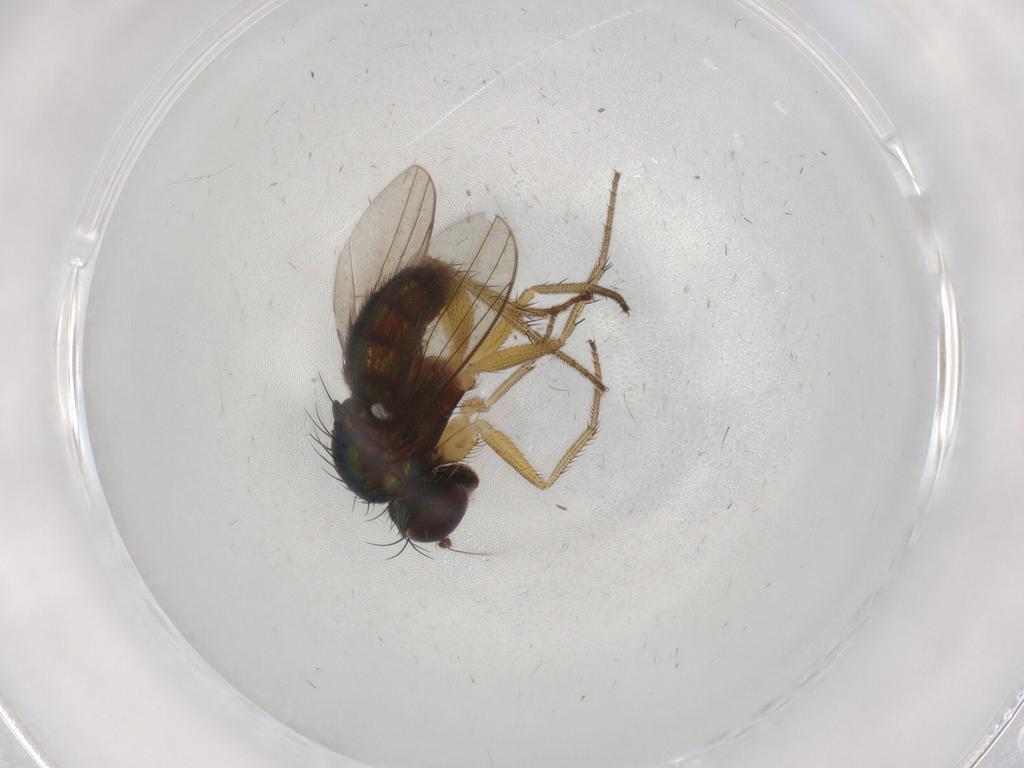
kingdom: Animalia
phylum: Arthropoda
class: Insecta
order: Diptera
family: Dolichopodidae
